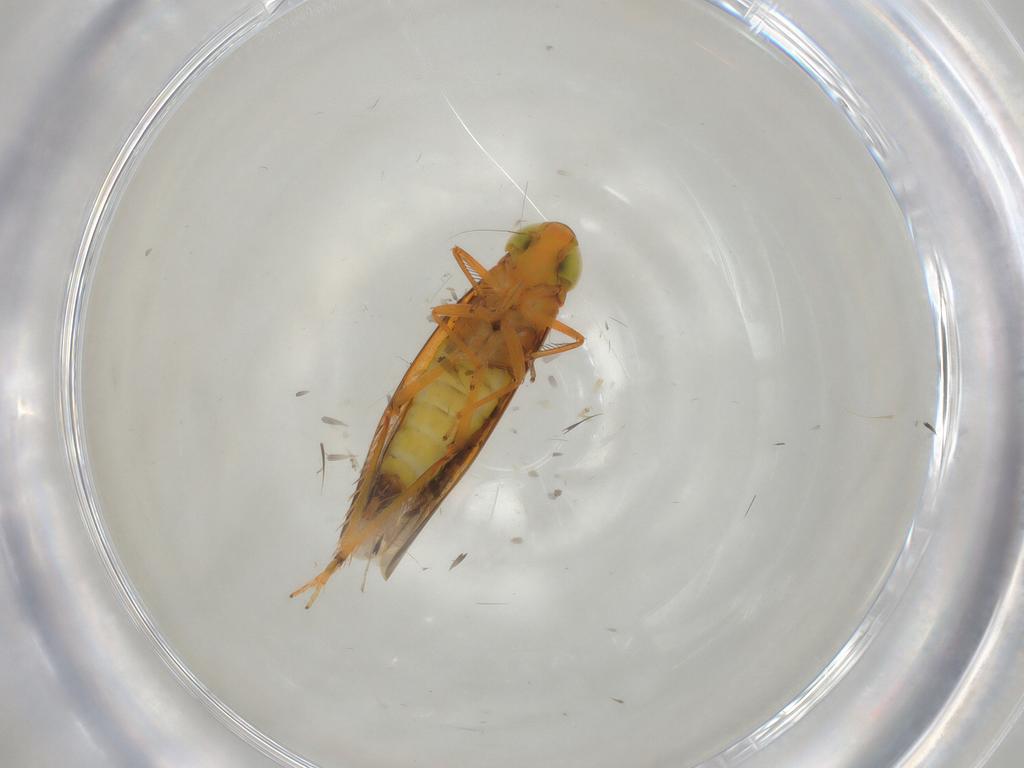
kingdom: Animalia
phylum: Arthropoda
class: Insecta
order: Hemiptera
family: Cicadellidae
